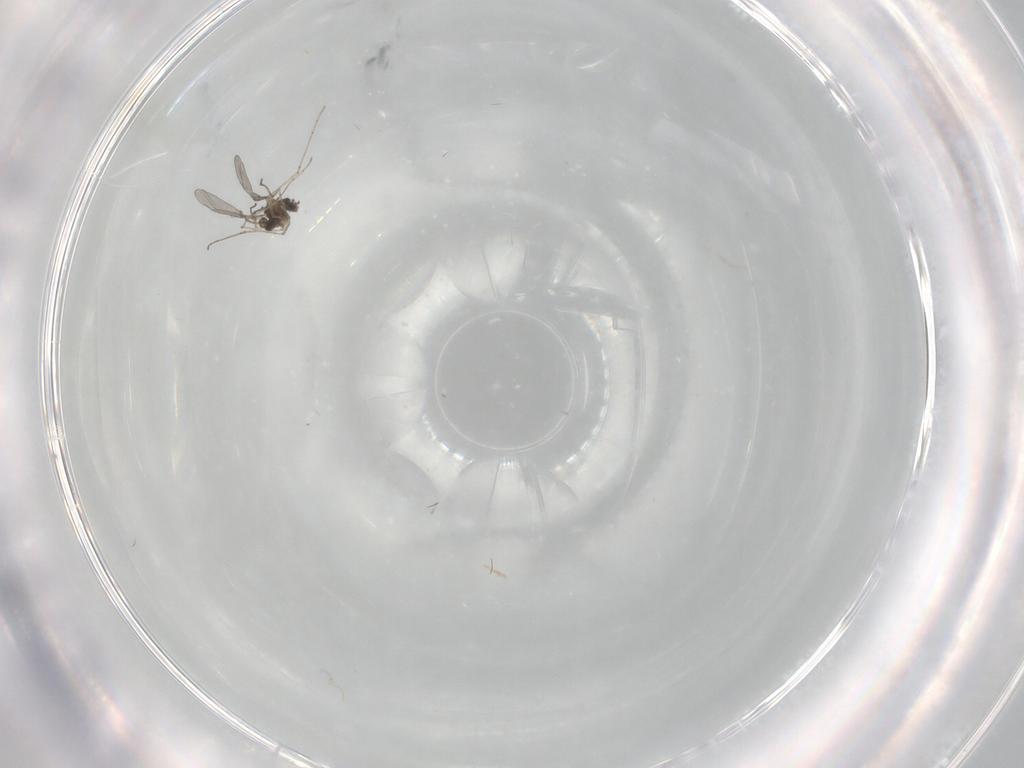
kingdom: Animalia
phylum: Arthropoda
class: Insecta
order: Diptera
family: Cecidomyiidae
